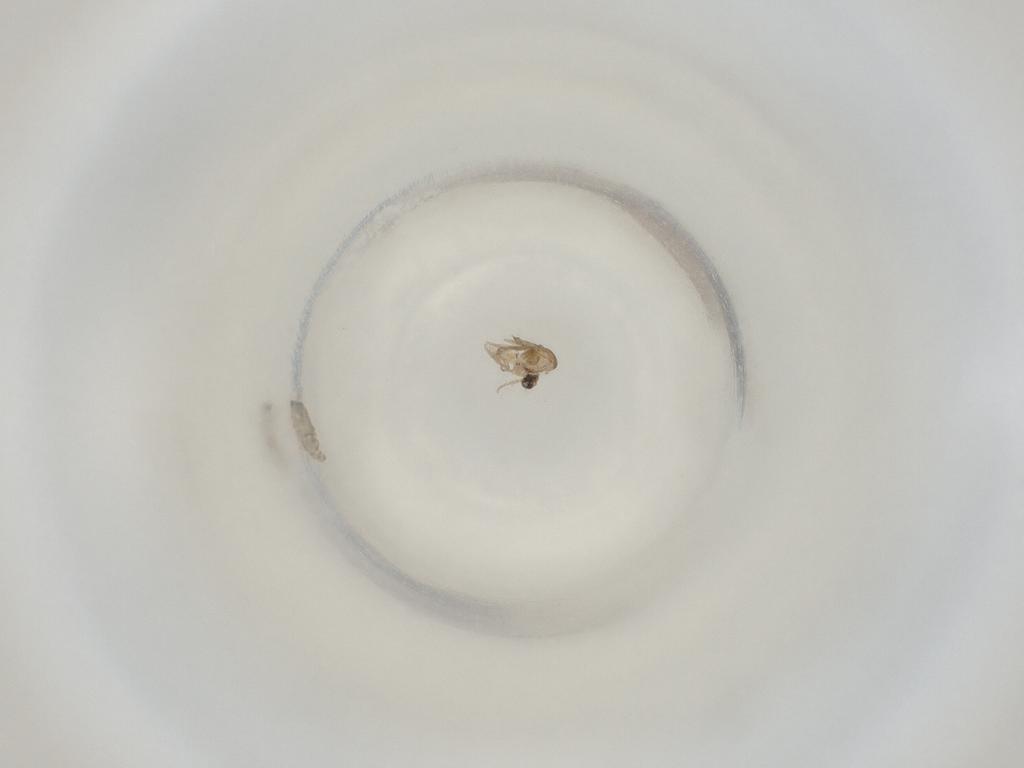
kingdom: Animalia
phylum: Arthropoda
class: Insecta
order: Diptera
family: Cecidomyiidae
